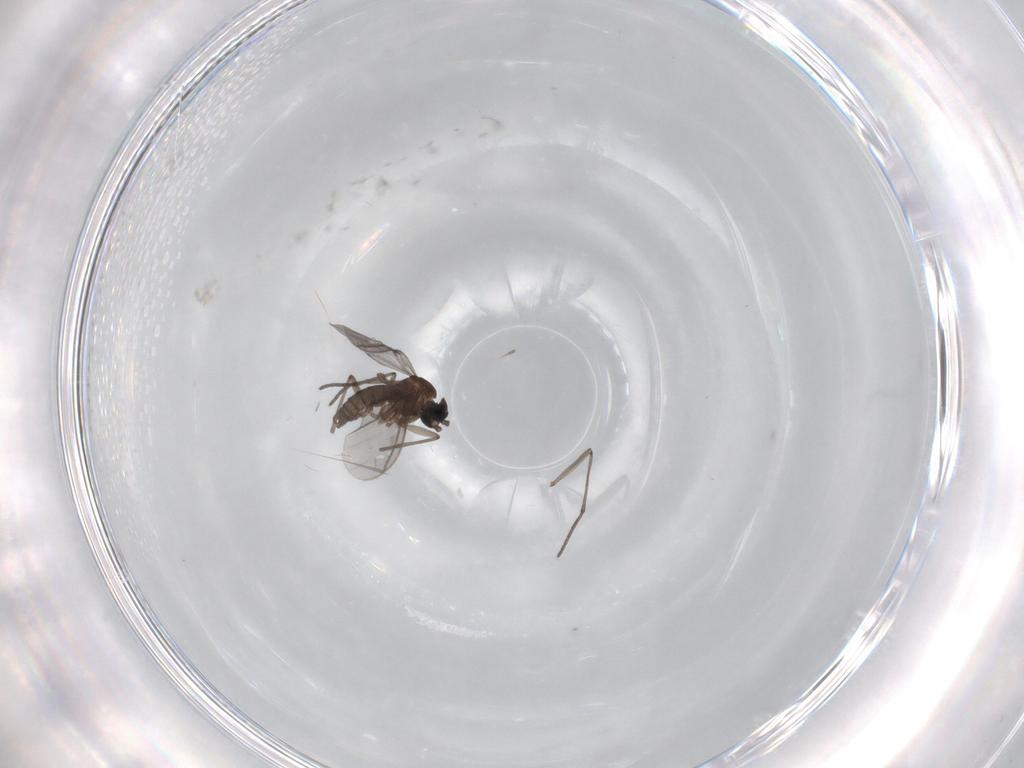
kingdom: Animalia
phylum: Arthropoda
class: Insecta
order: Diptera
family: Sciaridae
